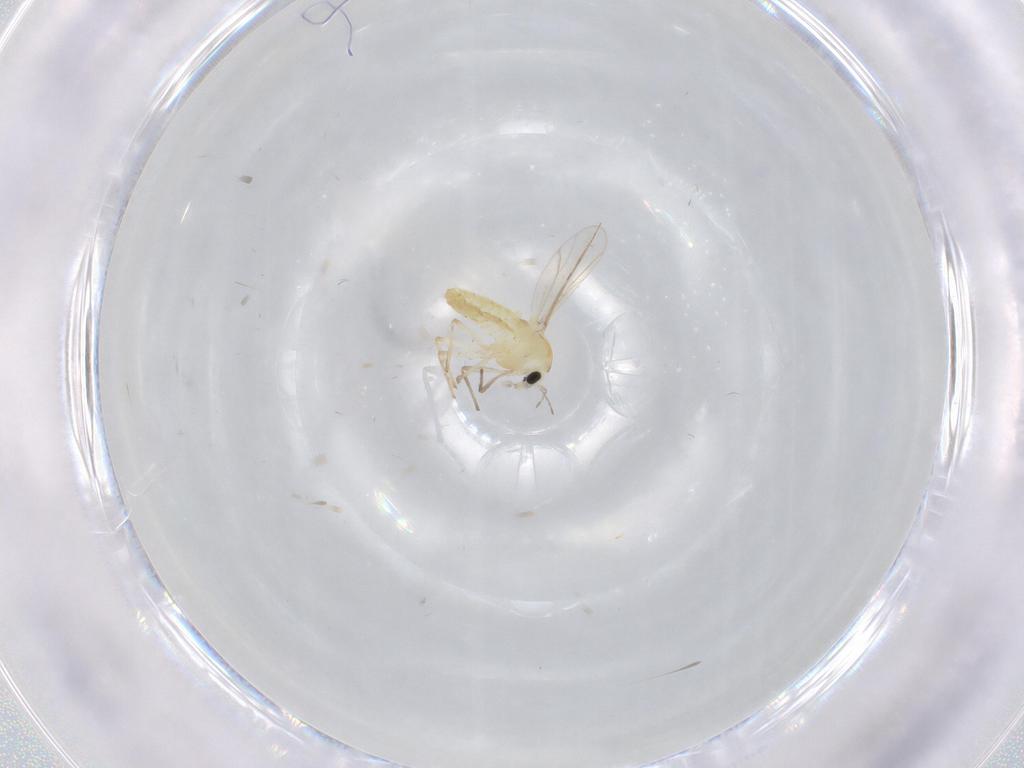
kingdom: Animalia
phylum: Arthropoda
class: Insecta
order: Diptera
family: Chironomidae
